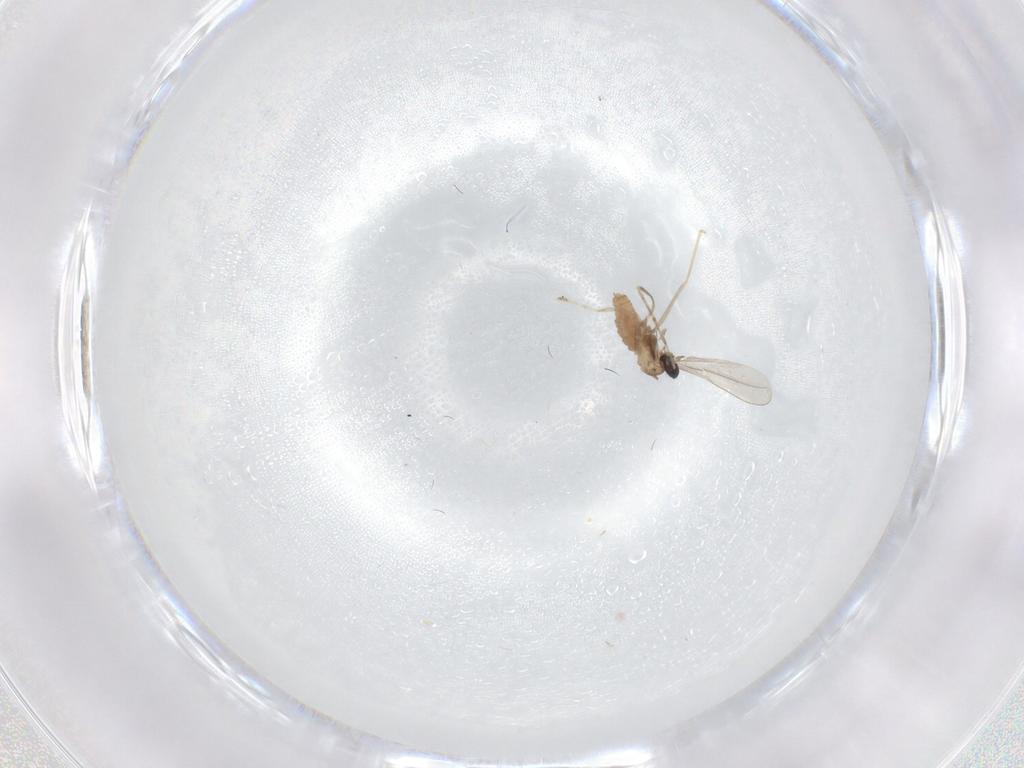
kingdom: Animalia
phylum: Arthropoda
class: Insecta
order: Diptera
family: Cecidomyiidae
